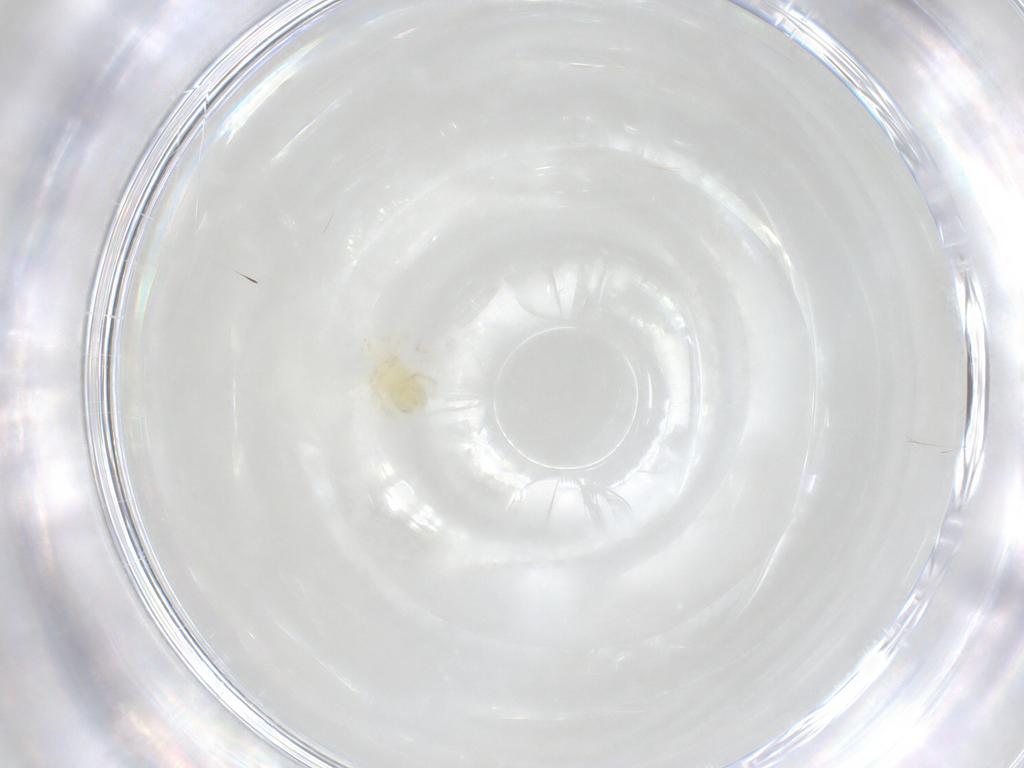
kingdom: Animalia
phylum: Arthropoda
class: Arachnida
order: Trombidiformes
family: Anystidae
